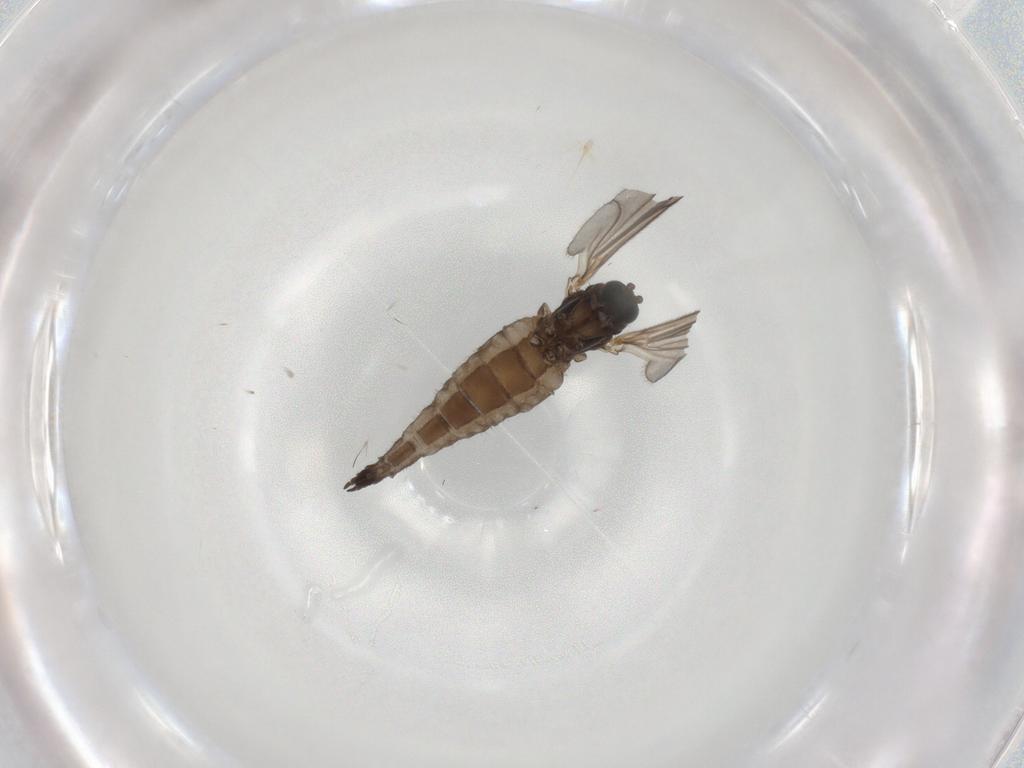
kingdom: Animalia
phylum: Arthropoda
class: Insecta
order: Diptera
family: Sciaridae
